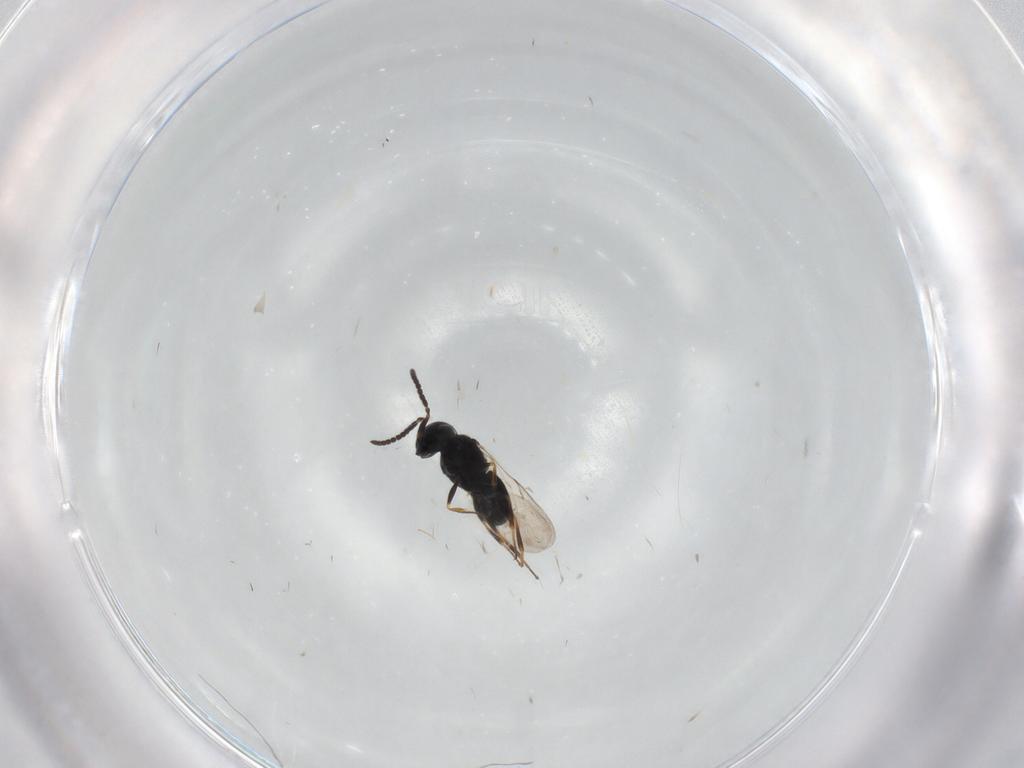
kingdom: Animalia
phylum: Arthropoda
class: Insecta
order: Hymenoptera
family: Scelionidae
